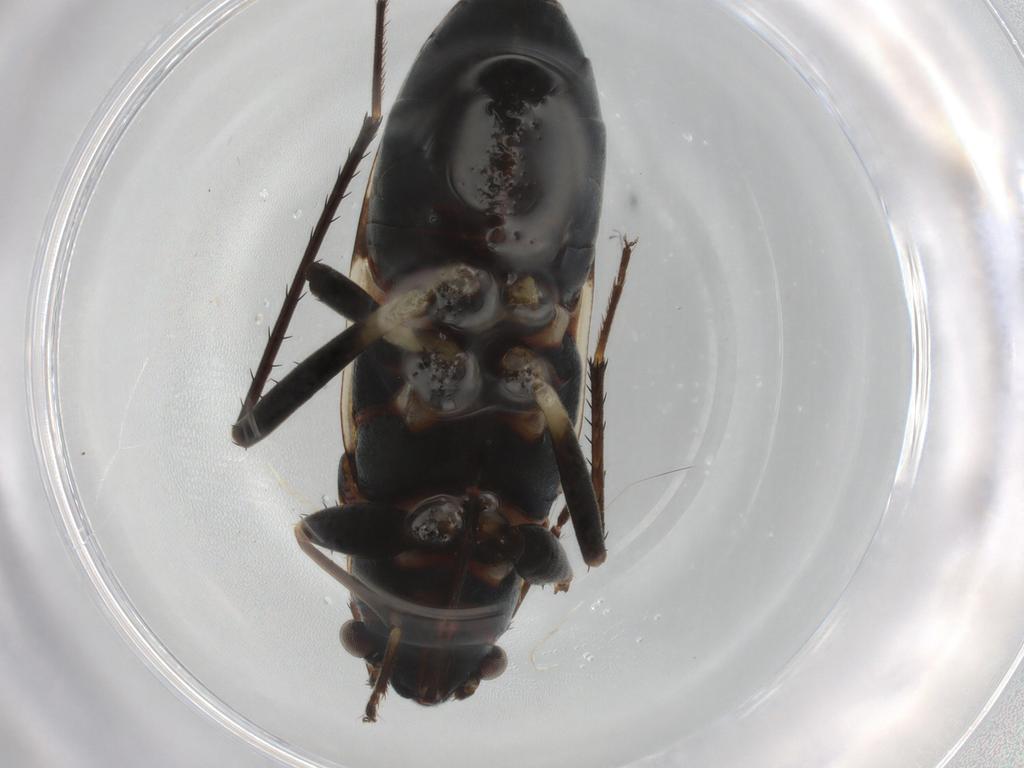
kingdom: Animalia
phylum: Arthropoda
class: Insecta
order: Hemiptera
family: Rhyparochromidae
